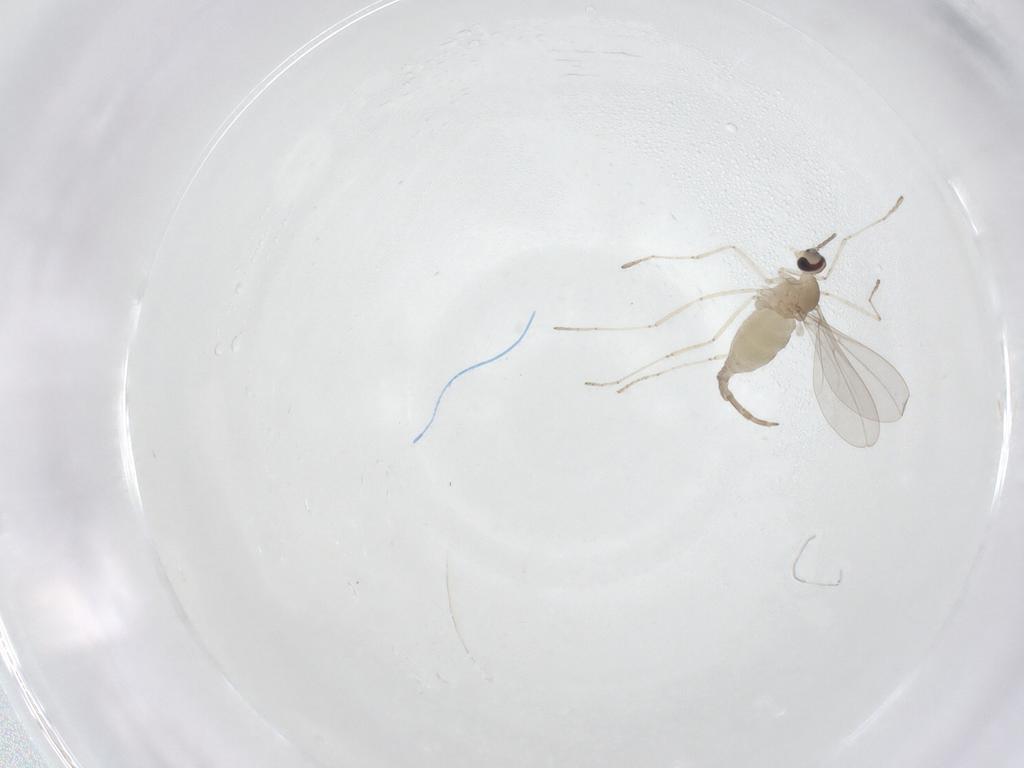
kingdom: Animalia
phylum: Arthropoda
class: Insecta
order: Diptera
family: Cecidomyiidae
